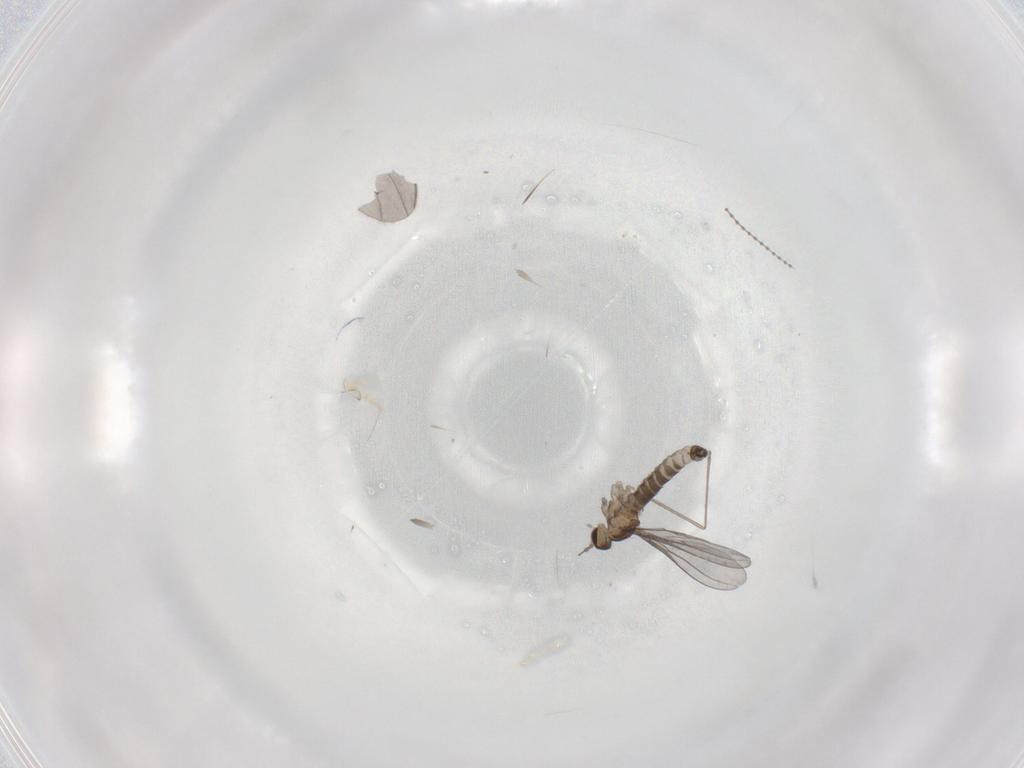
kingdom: Animalia
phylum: Arthropoda
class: Insecta
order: Diptera
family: Cecidomyiidae
